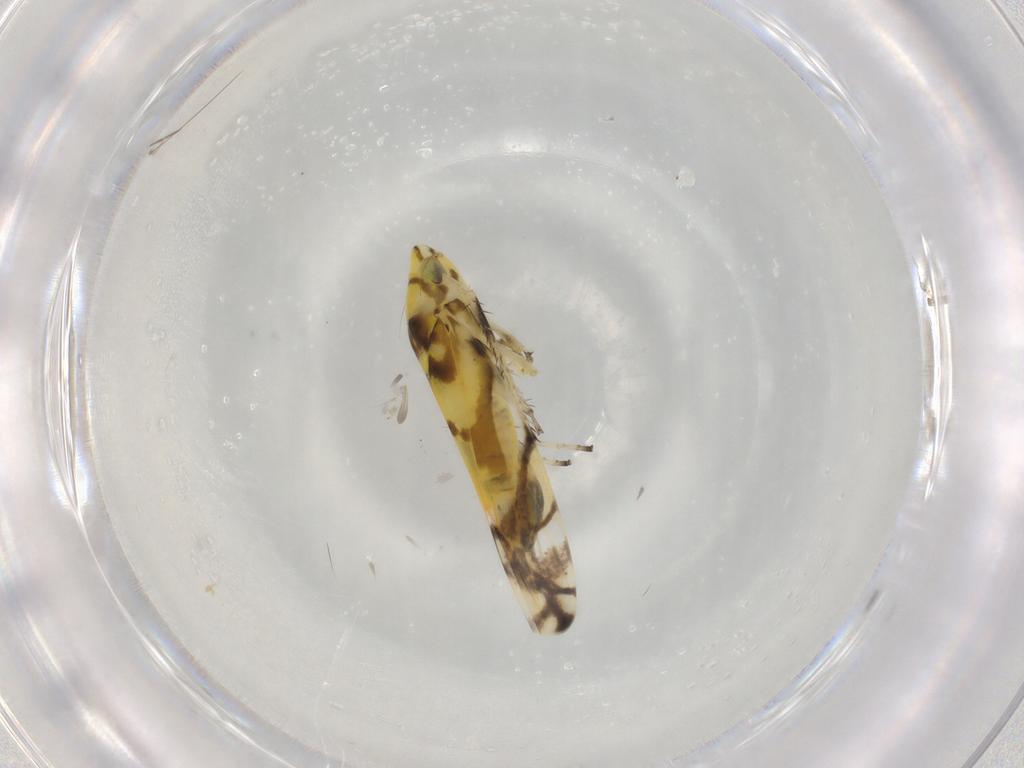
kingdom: Animalia
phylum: Arthropoda
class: Insecta
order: Hemiptera
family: Cicadellidae
